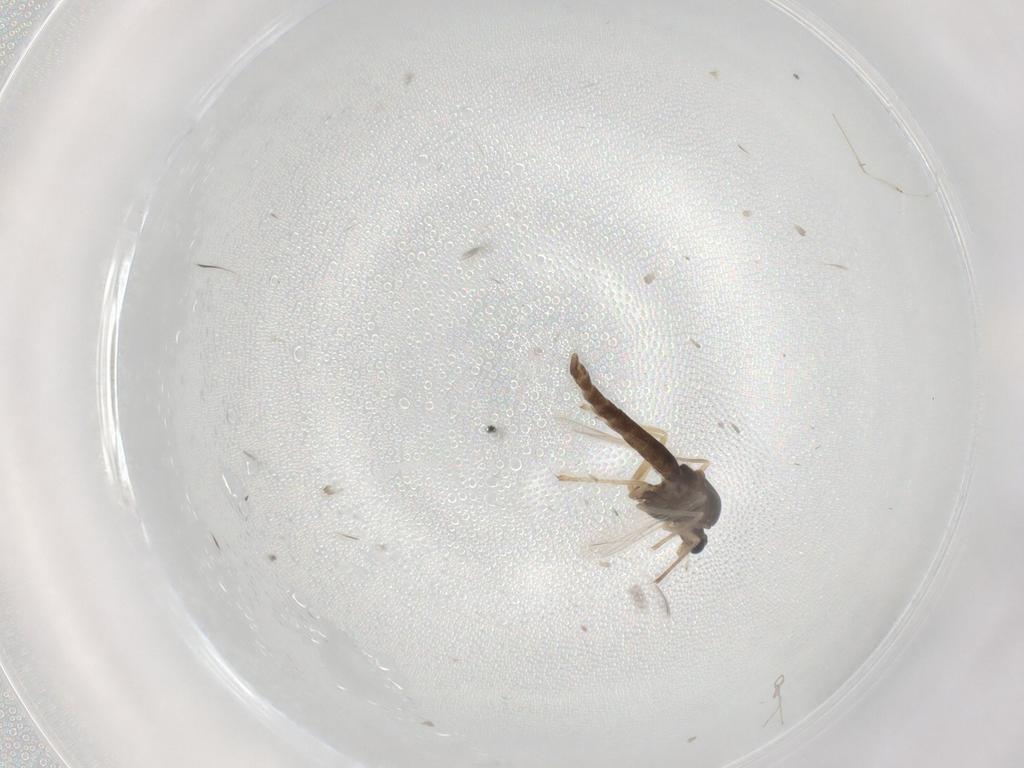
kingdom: Animalia
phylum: Arthropoda
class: Insecta
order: Diptera
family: Chironomidae
